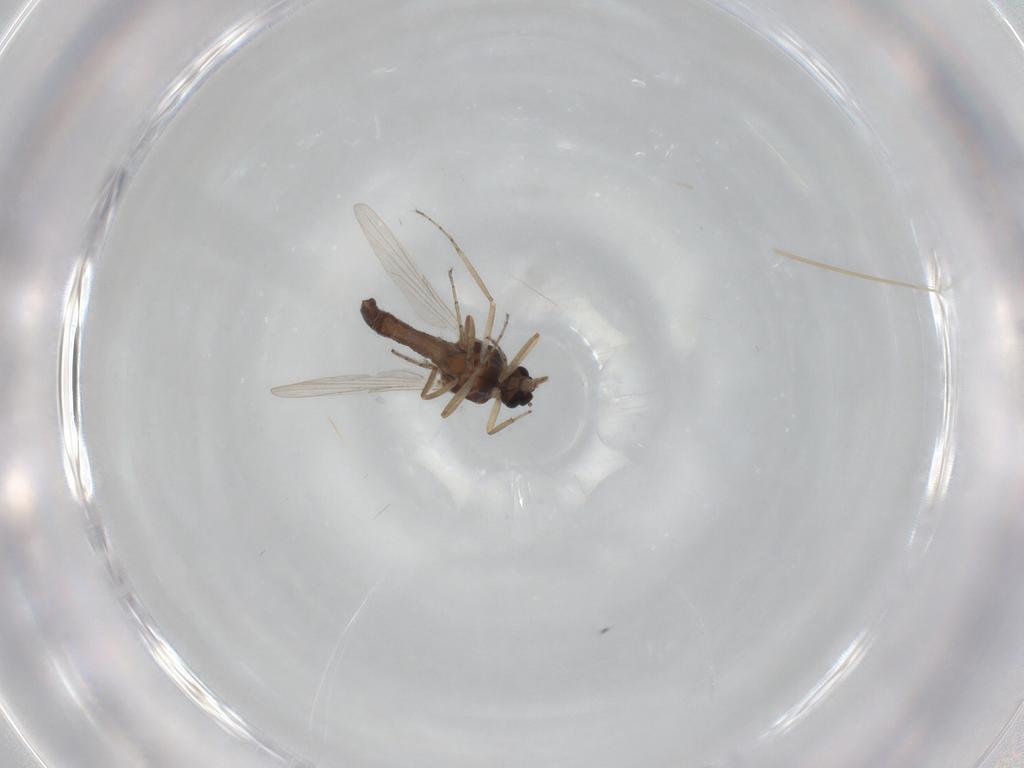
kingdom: Animalia
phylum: Arthropoda
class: Insecta
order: Diptera
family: Ceratopogonidae
